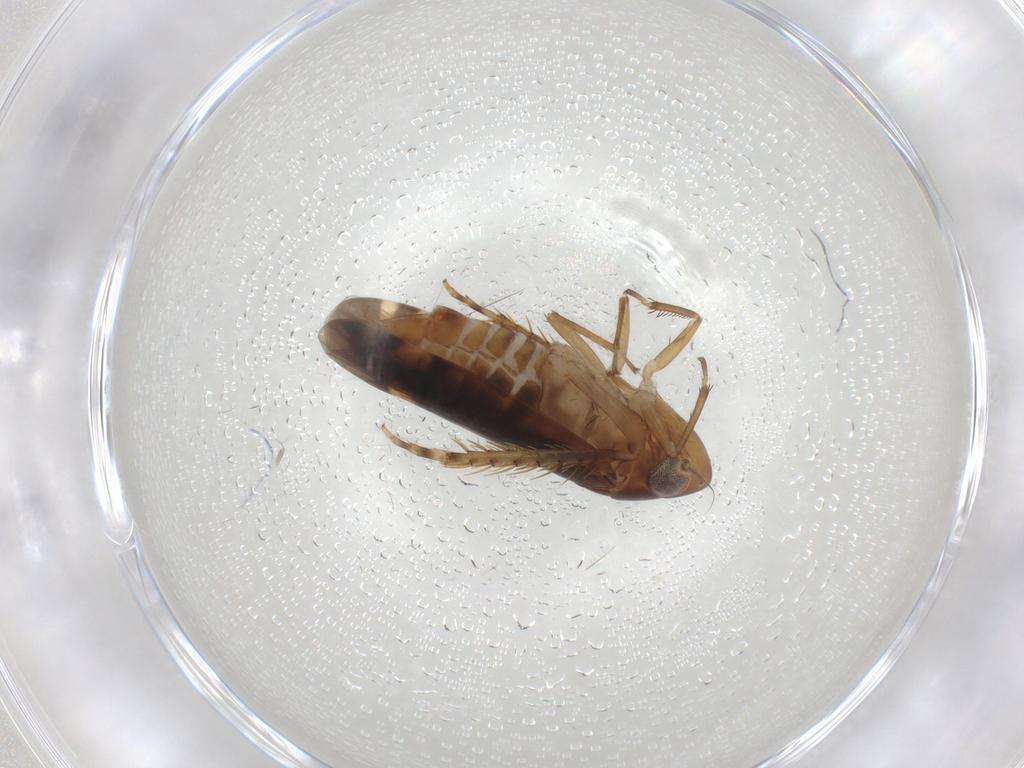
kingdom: Animalia
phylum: Arthropoda
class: Insecta
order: Hemiptera
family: Cicadellidae
